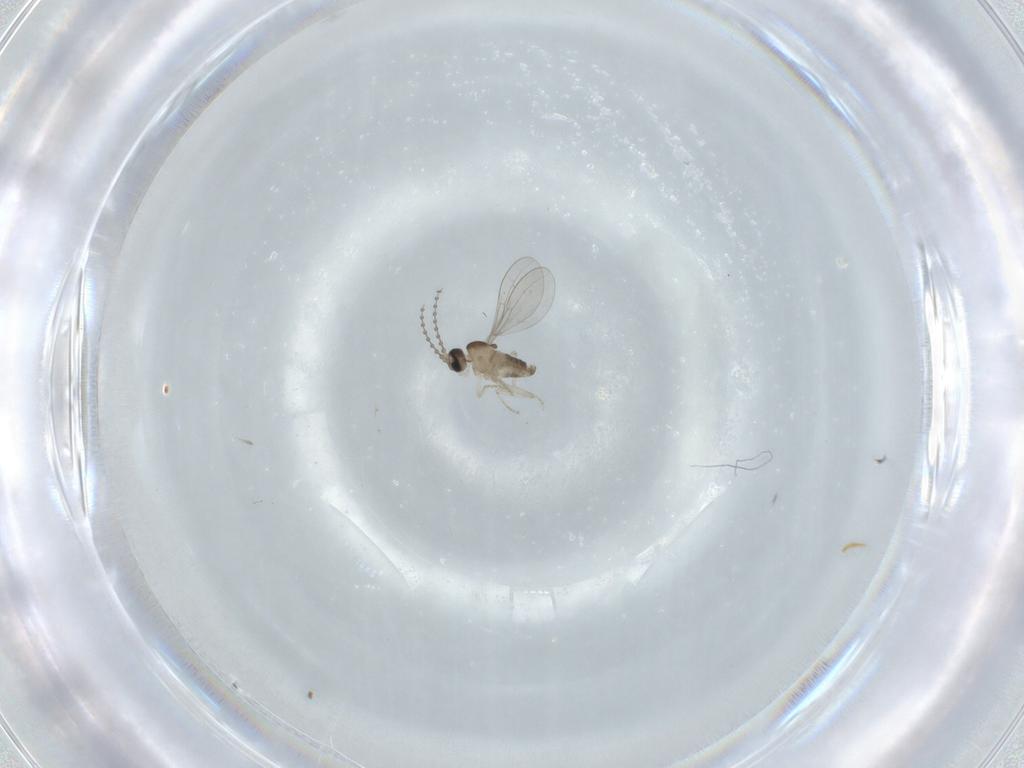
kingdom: Animalia
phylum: Arthropoda
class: Insecta
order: Diptera
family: Cecidomyiidae
